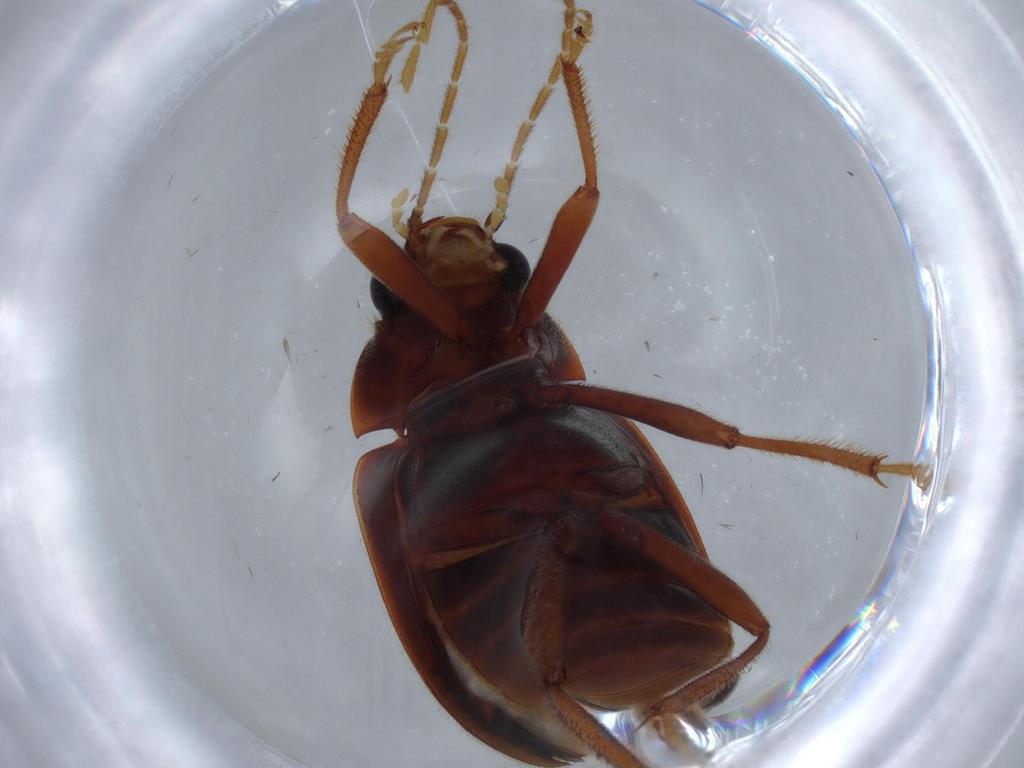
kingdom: Animalia
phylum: Arthropoda
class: Insecta
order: Coleoptera
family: Ptilodactylidae
